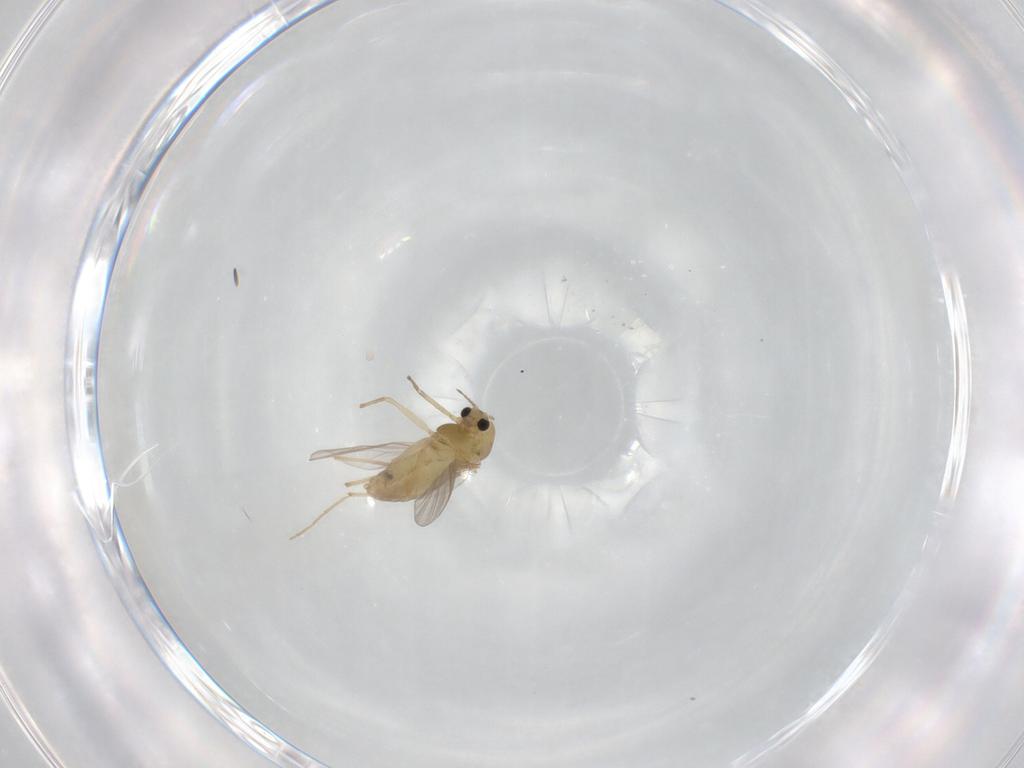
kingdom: Animalia
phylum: Arthropoda
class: Insecta
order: Diptera
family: Chironomidae
